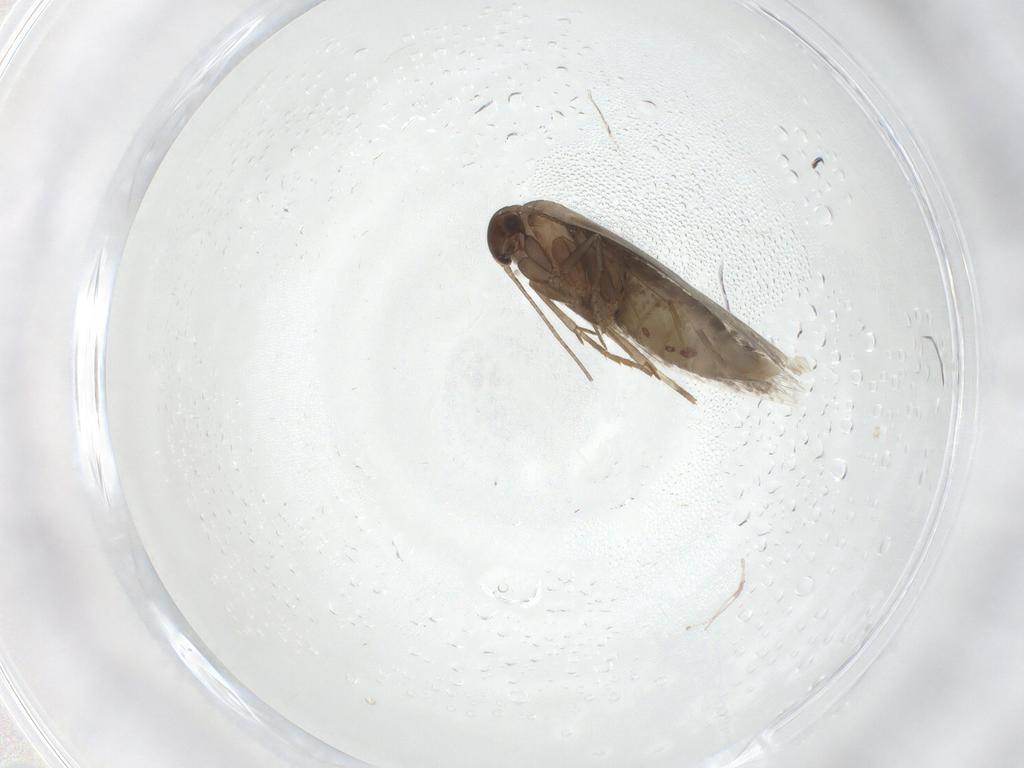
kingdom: Animalia
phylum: Arthropoda
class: Insecta
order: Lepidoptera
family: Elachistidae
